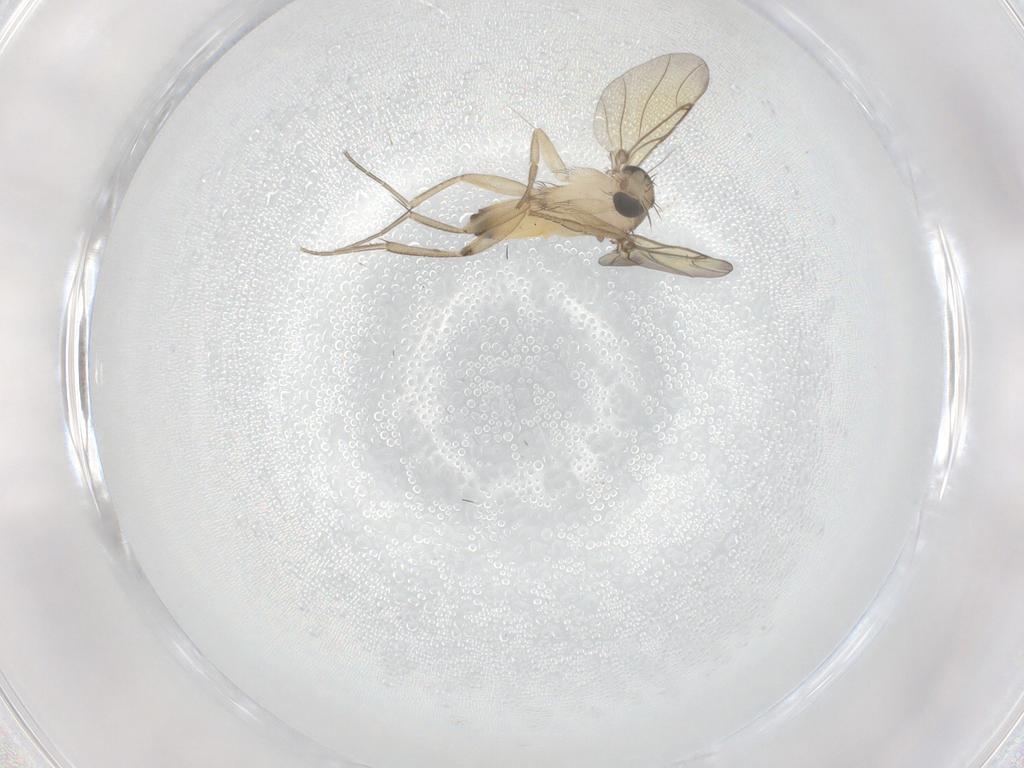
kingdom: Animalia
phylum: Arthropoda
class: Insecta
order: Diptera
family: Phoridae
